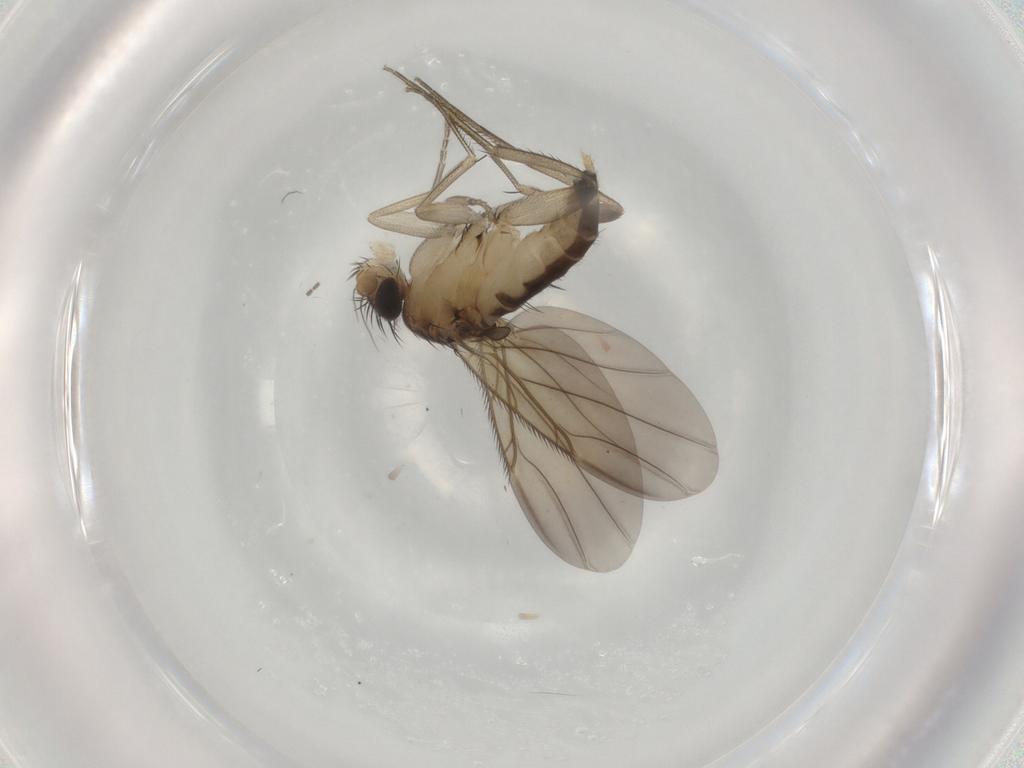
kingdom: Animalia
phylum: Arthropoda
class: Insecta
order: Diptera
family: Phoridae
